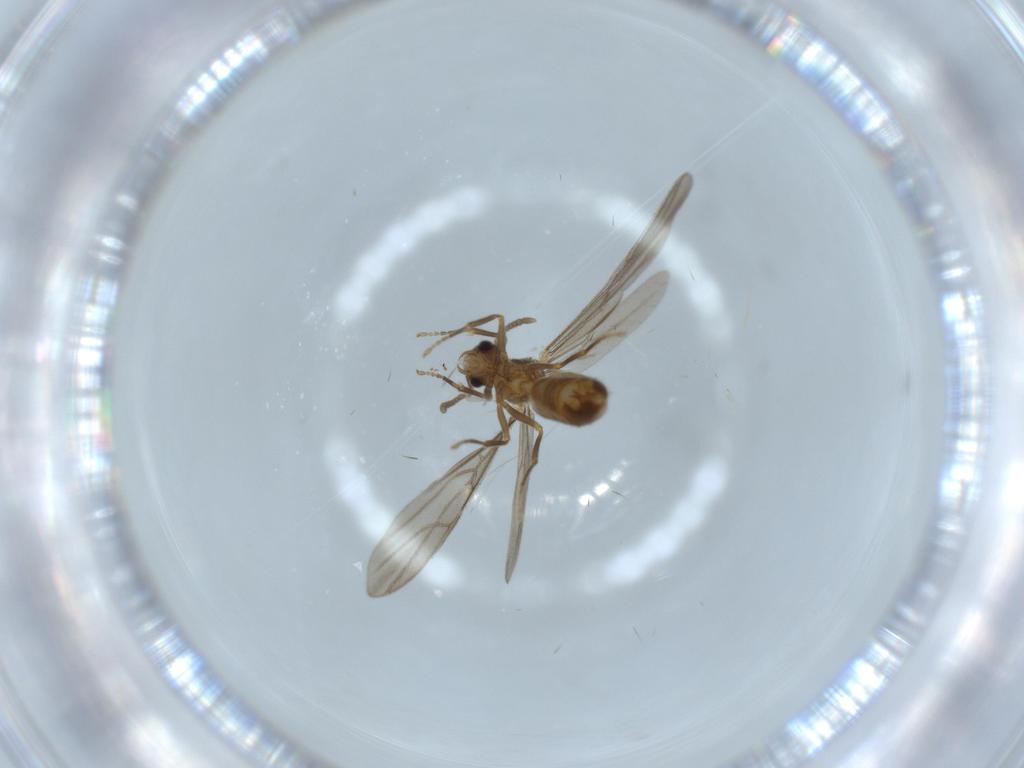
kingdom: Animalia
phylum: Arthropoda
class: Insecta
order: Hymenoptera
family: Formicidae
